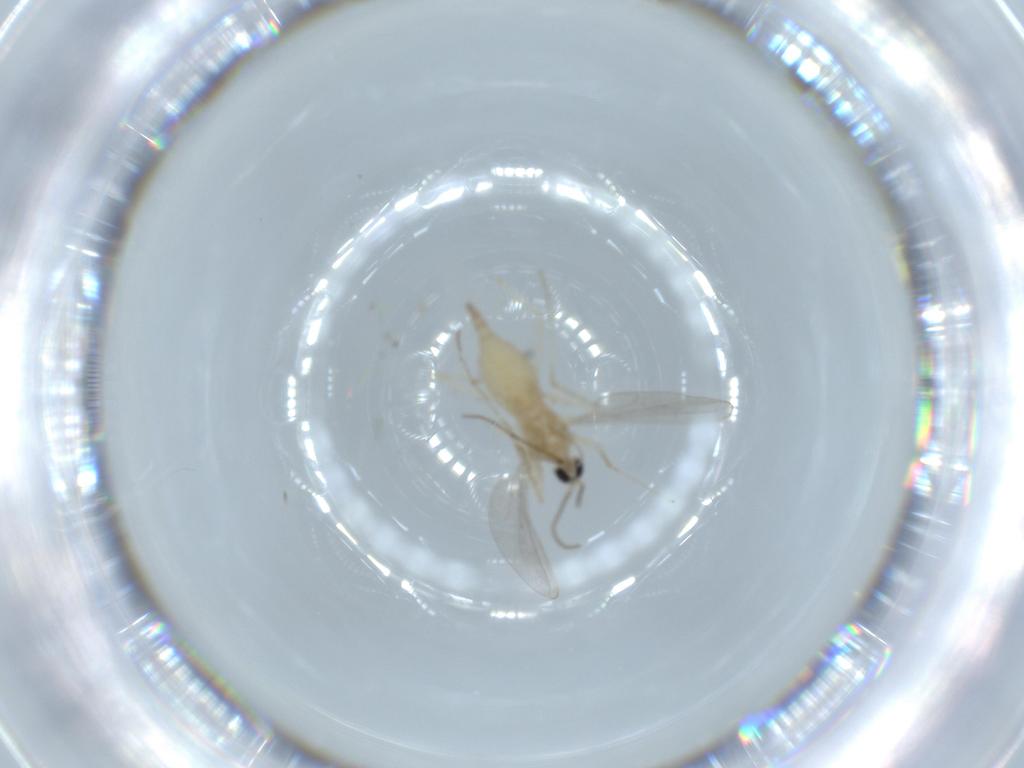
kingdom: Animalia
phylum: Arthropoda
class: Insecta
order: Diptera
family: Cecidomyiidae
